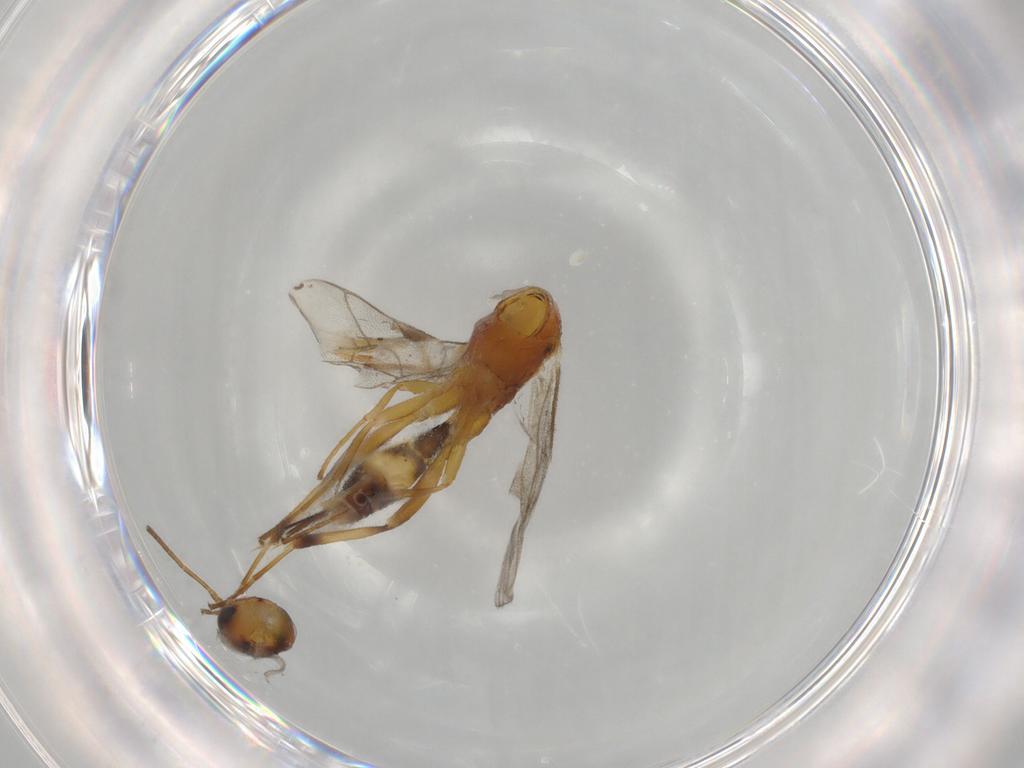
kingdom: Animalia
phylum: Arthropoda
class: Insecta
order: Hymenoptera
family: Ichneumonidae
